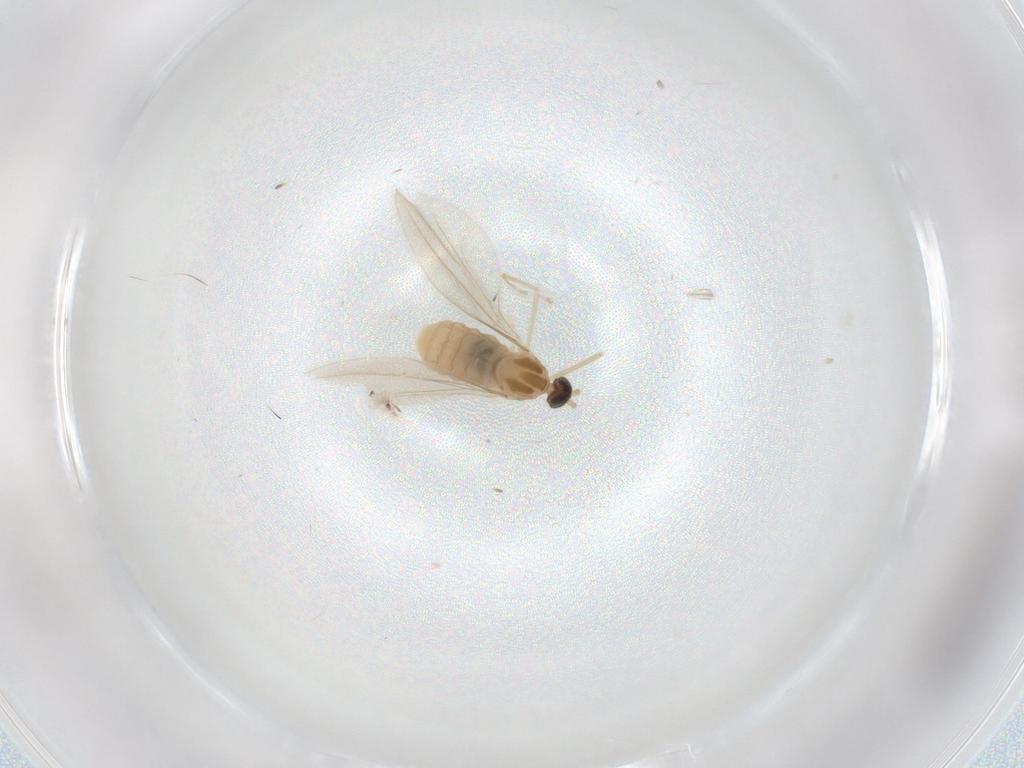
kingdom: Animalia
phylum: Arthropoda
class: Insecta
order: Diptera
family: Cecidomyiidae
